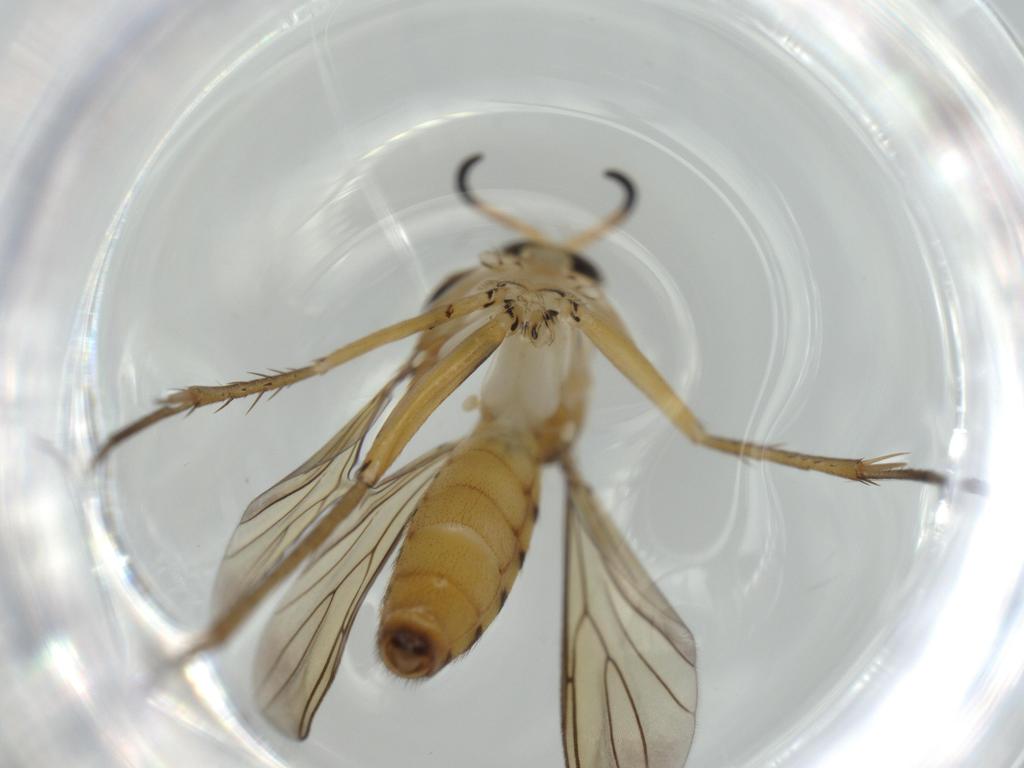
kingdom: Animalia
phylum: Arthropoda
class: Insecta
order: Diptera
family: Mycetophilidae
